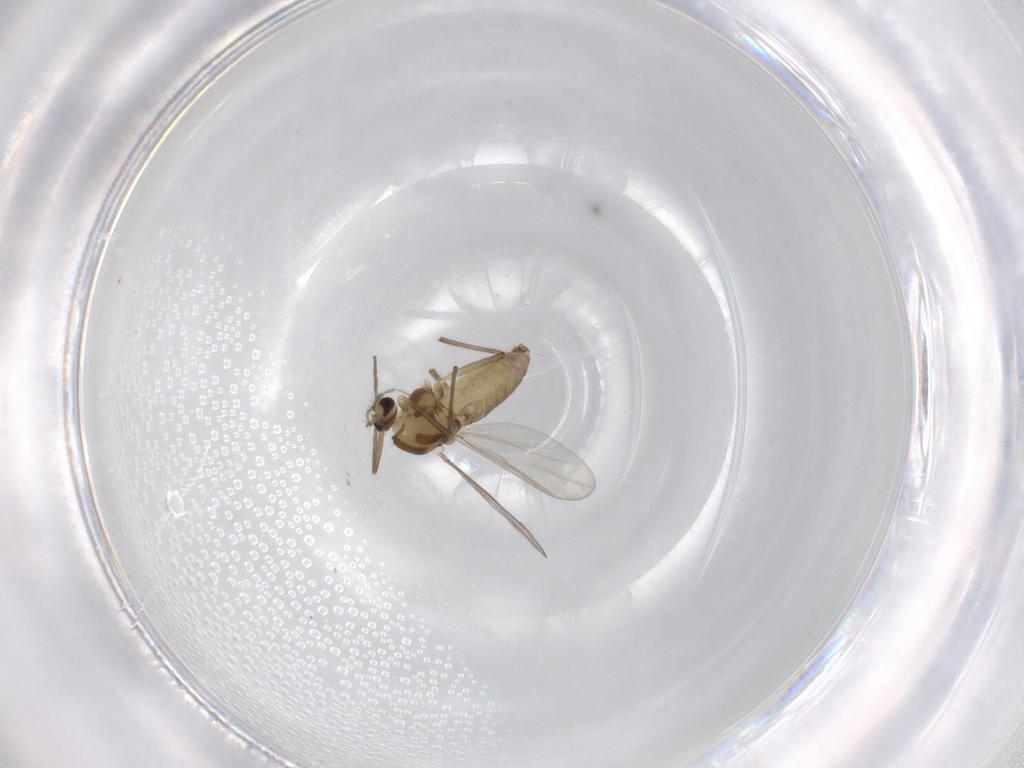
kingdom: Animalia
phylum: Arthropoda
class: Insecta
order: Diptera
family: Chironomidae
